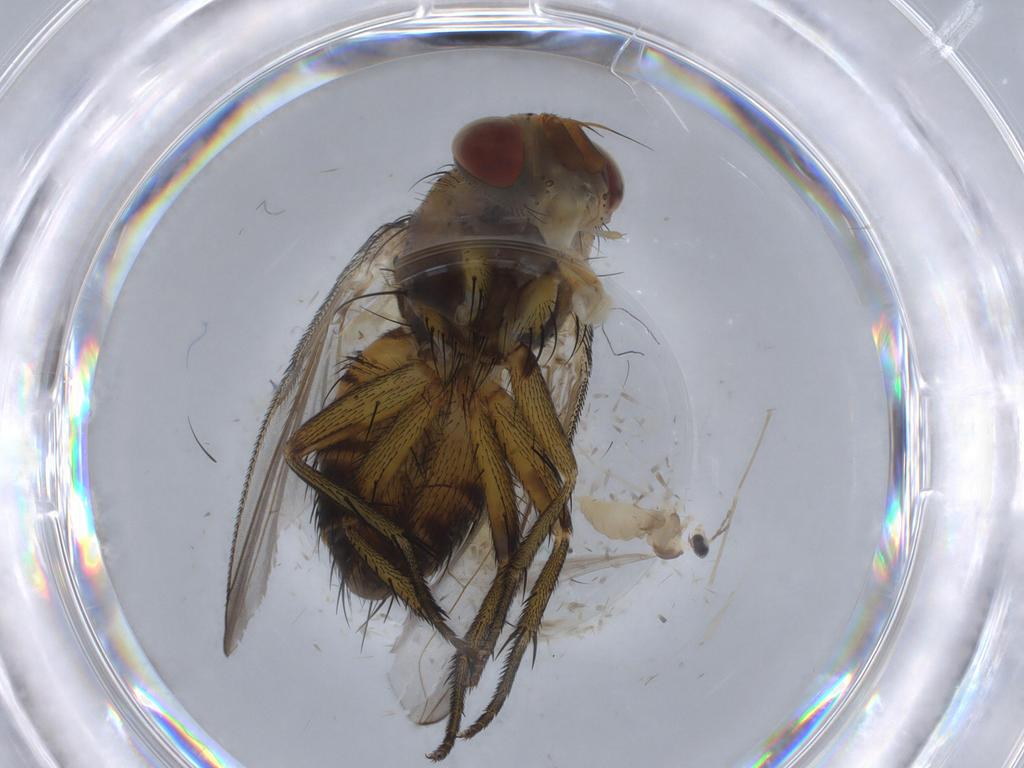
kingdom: Animalia
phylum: Arthropoda
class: Insecta
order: Diptera
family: Cecidomyiidae
